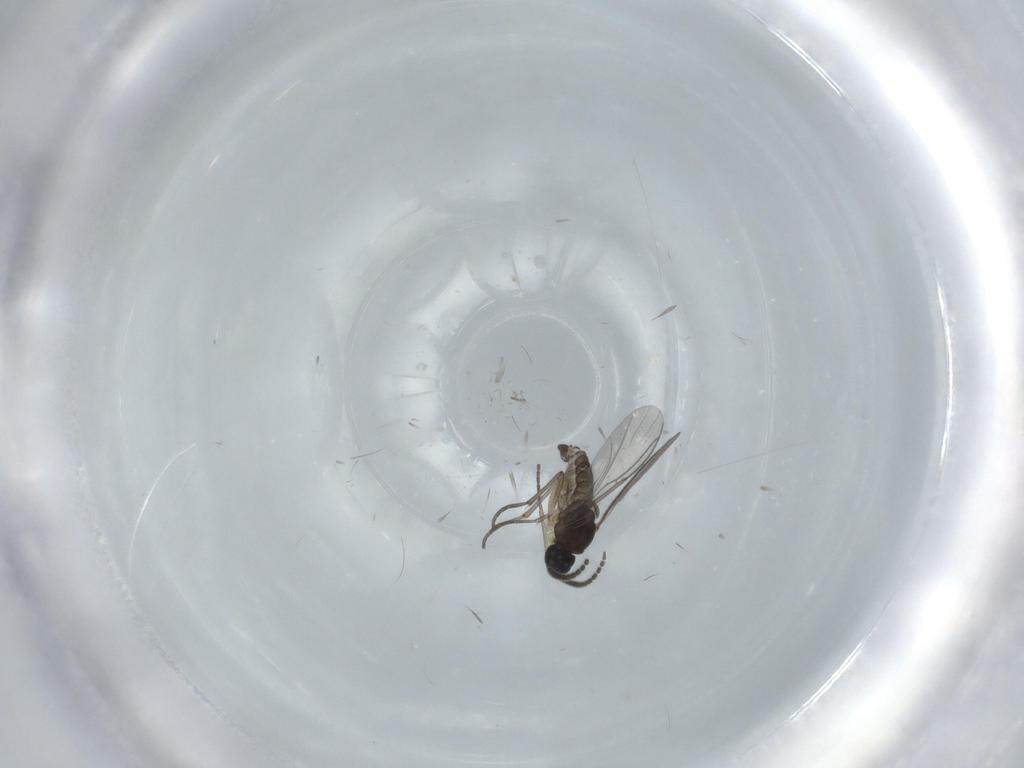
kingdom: Animalia
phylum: Arthropoda
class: Insecta
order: Diptera
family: Sciaridae
